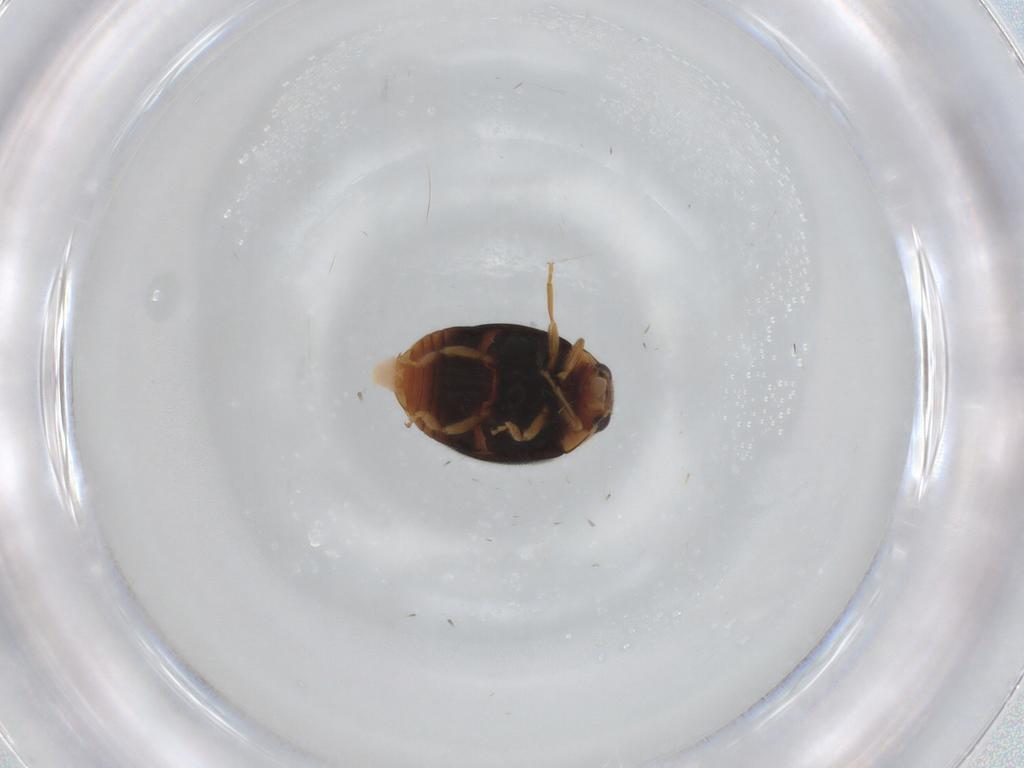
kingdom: Animalia
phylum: Arthropoda
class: Insecta
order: Coleoptera
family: Coccinellidae
